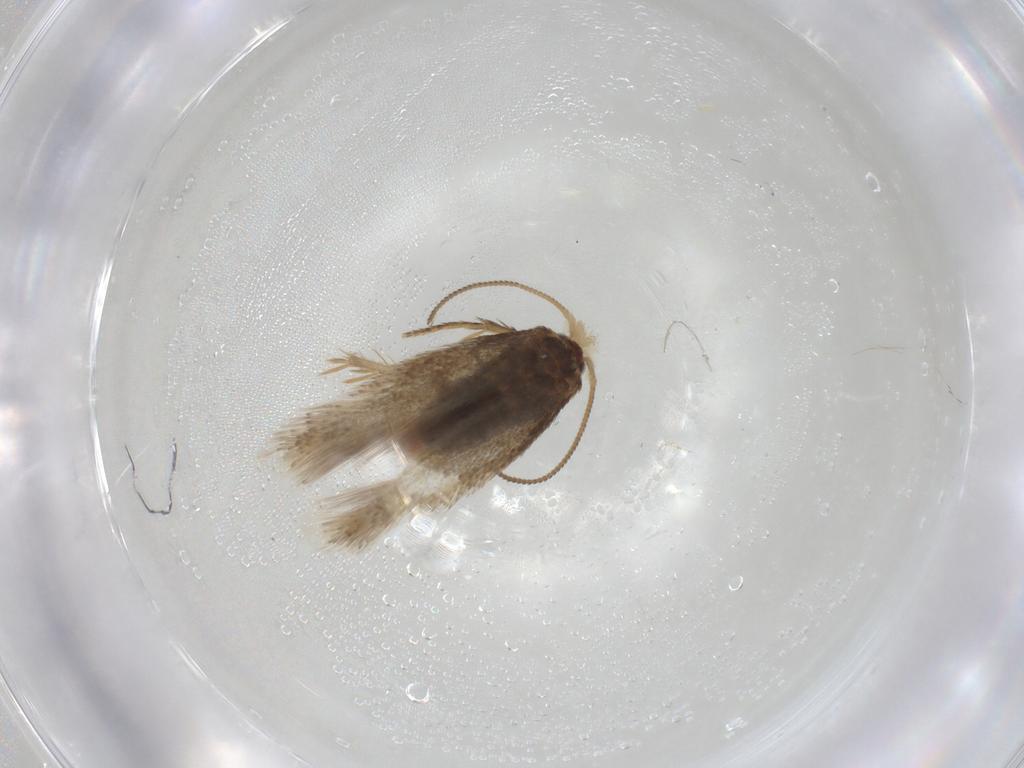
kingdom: Animalia
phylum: Arthropoda
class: Insecta
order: Lepidoptera
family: Nepticulidae
